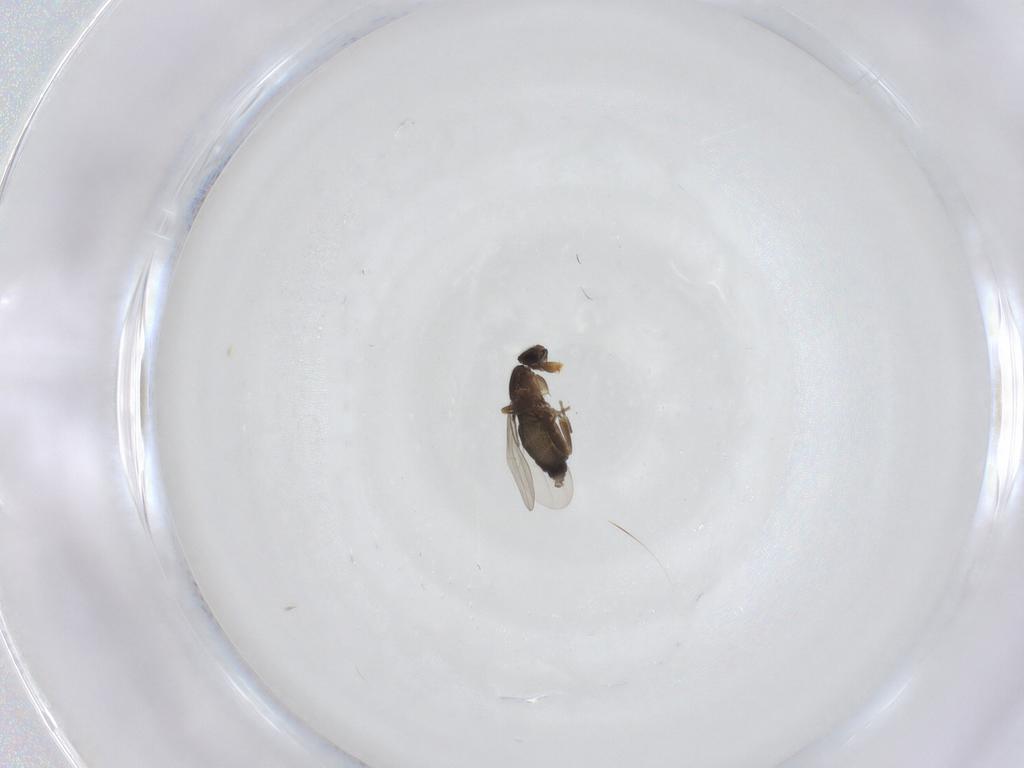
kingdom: Animalia
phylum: Arthropoda
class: Insecta
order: Diptera
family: Phoridae
